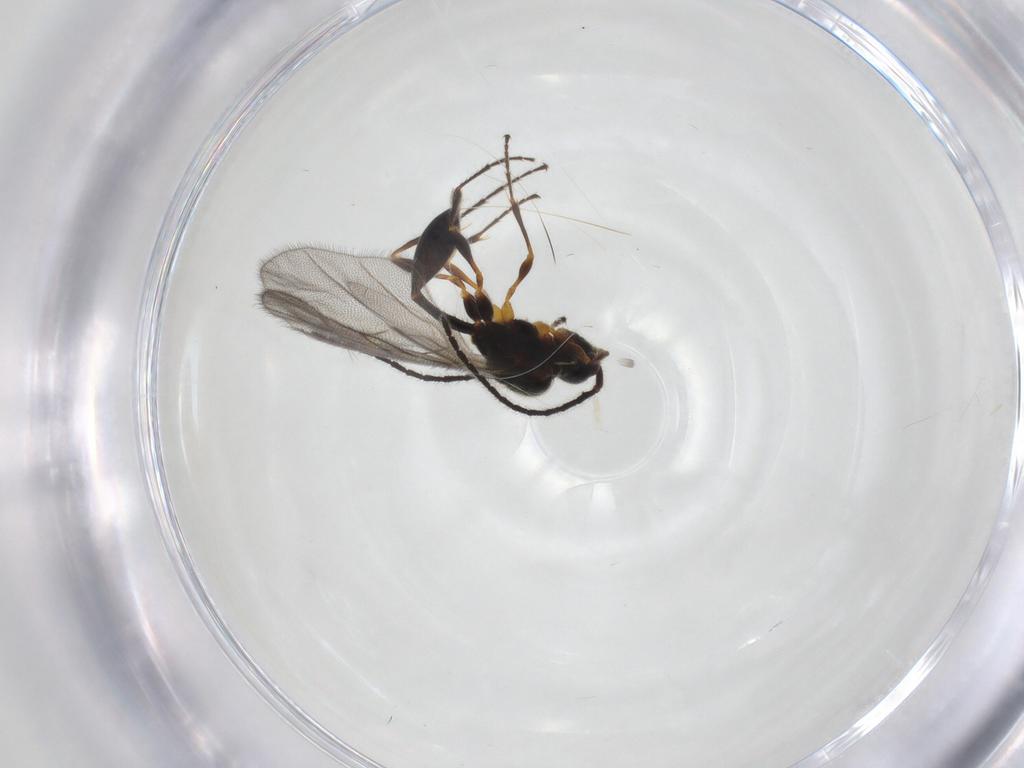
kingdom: Animalia
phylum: Arthropoda
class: Insecta
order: Hymenoptera
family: Diapriidae
